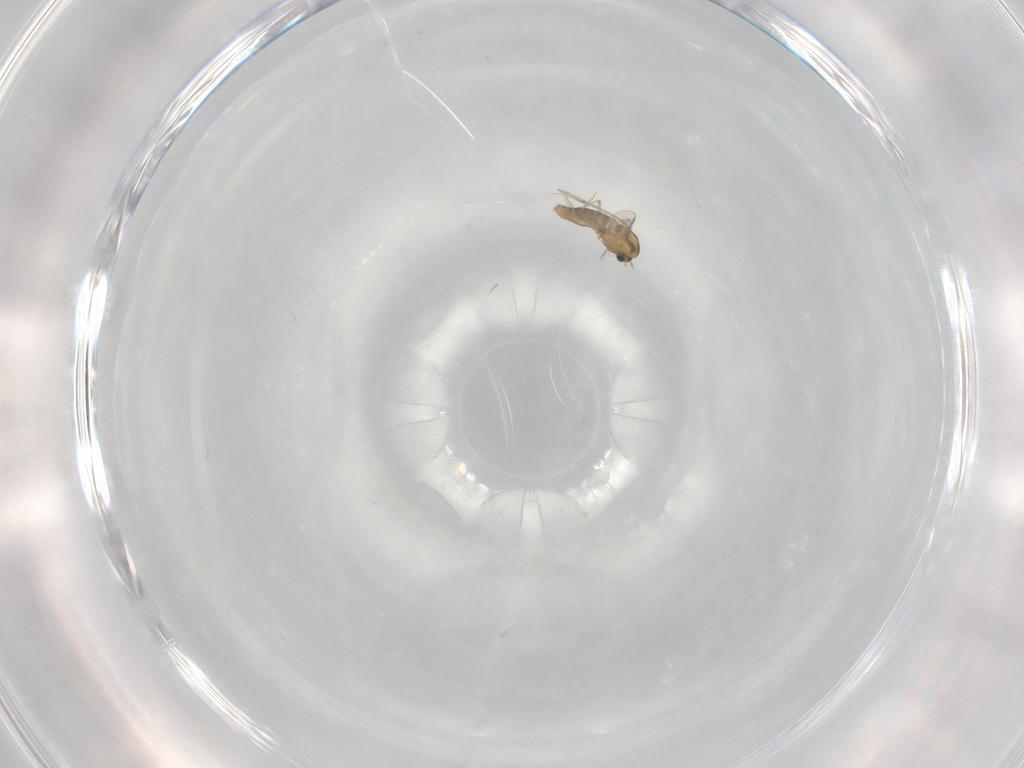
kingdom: Animalia
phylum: Arthropoda
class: Insecta
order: Diptera
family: Chironomidae
